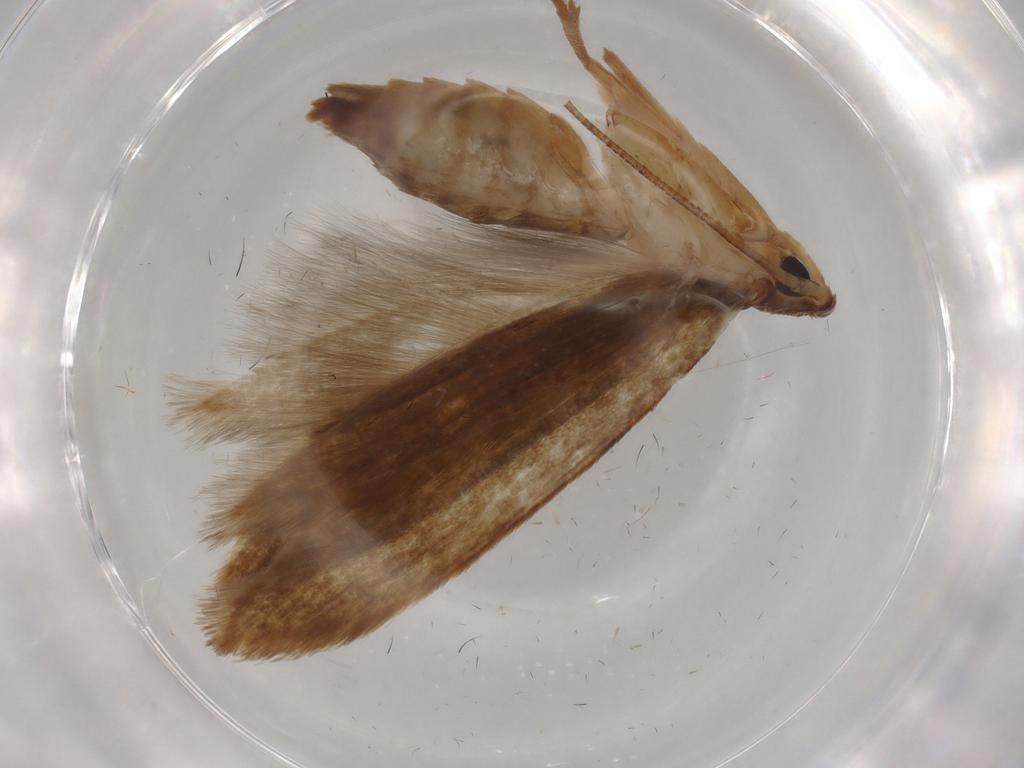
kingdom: Animalia
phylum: Arthropoda
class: Insecta
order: Lepidoptera
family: Tineidae
